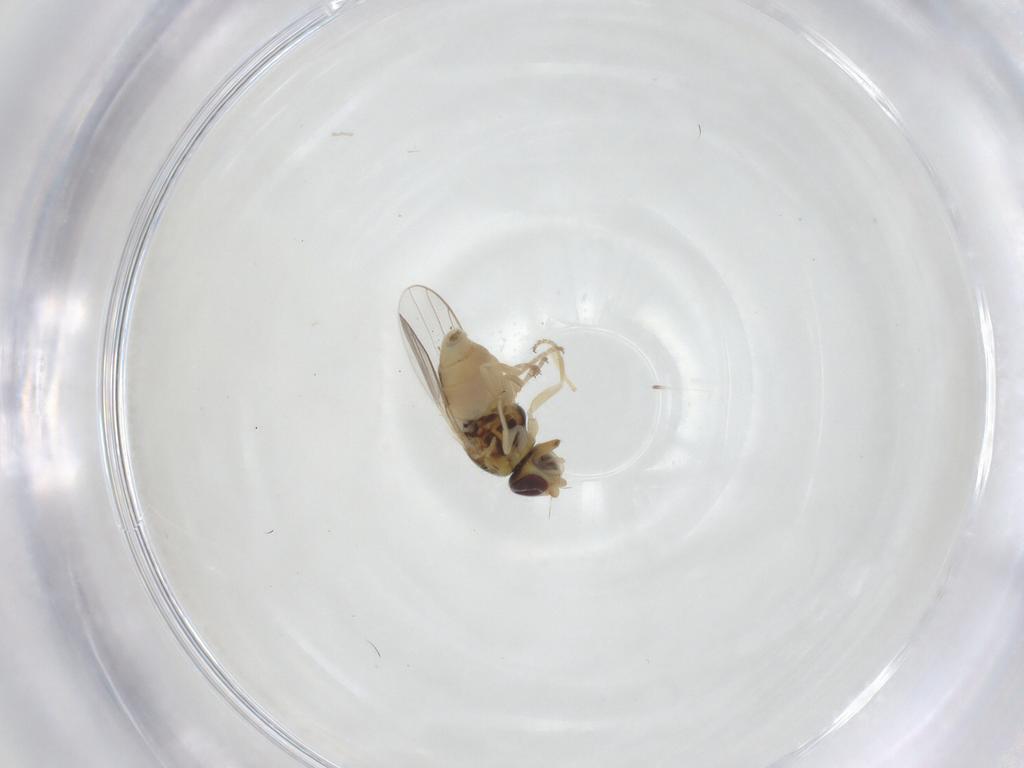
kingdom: Animalia
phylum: Arthropoda
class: Insecta
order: Diptera
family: Chloropidae
